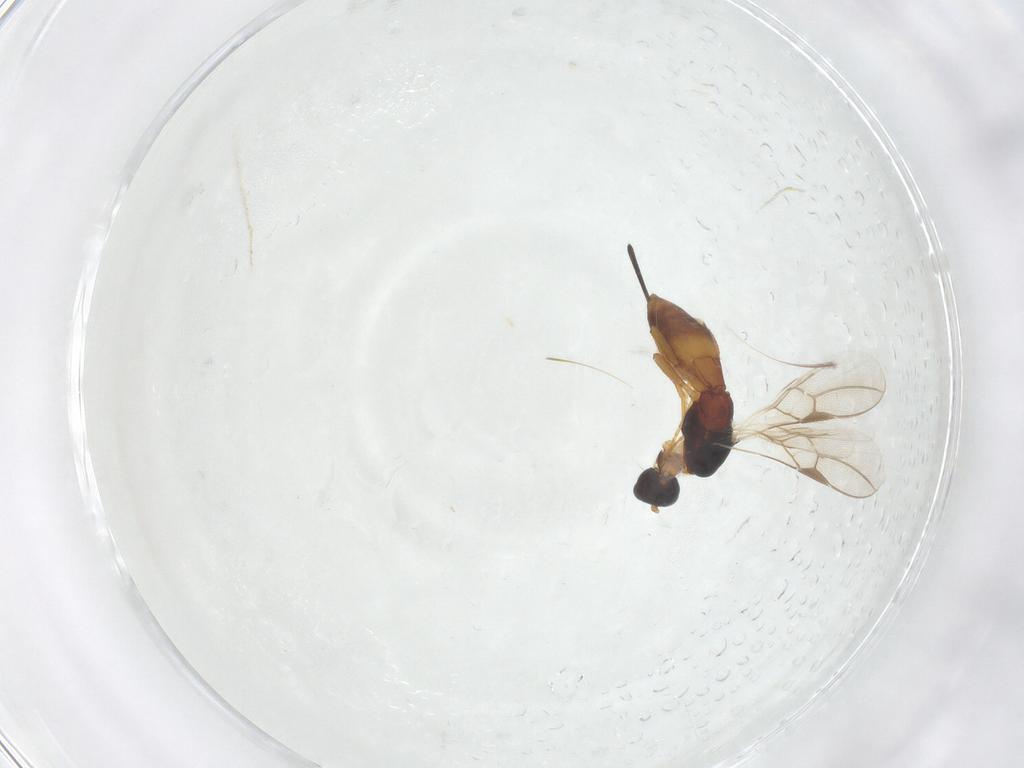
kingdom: Animalia
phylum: Arthropoda
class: Insecta
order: Hymenoptera
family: Braconidae
